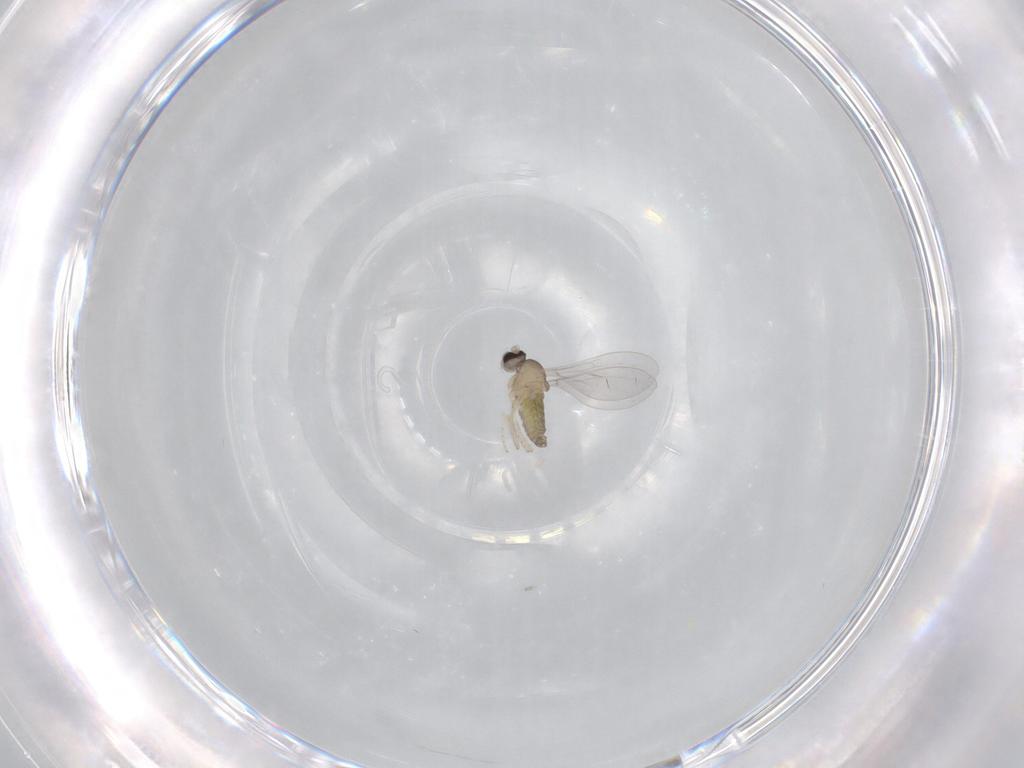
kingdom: Animalia
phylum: Arthropoda
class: Insecta
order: Diptera
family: Cecidomyiidae
